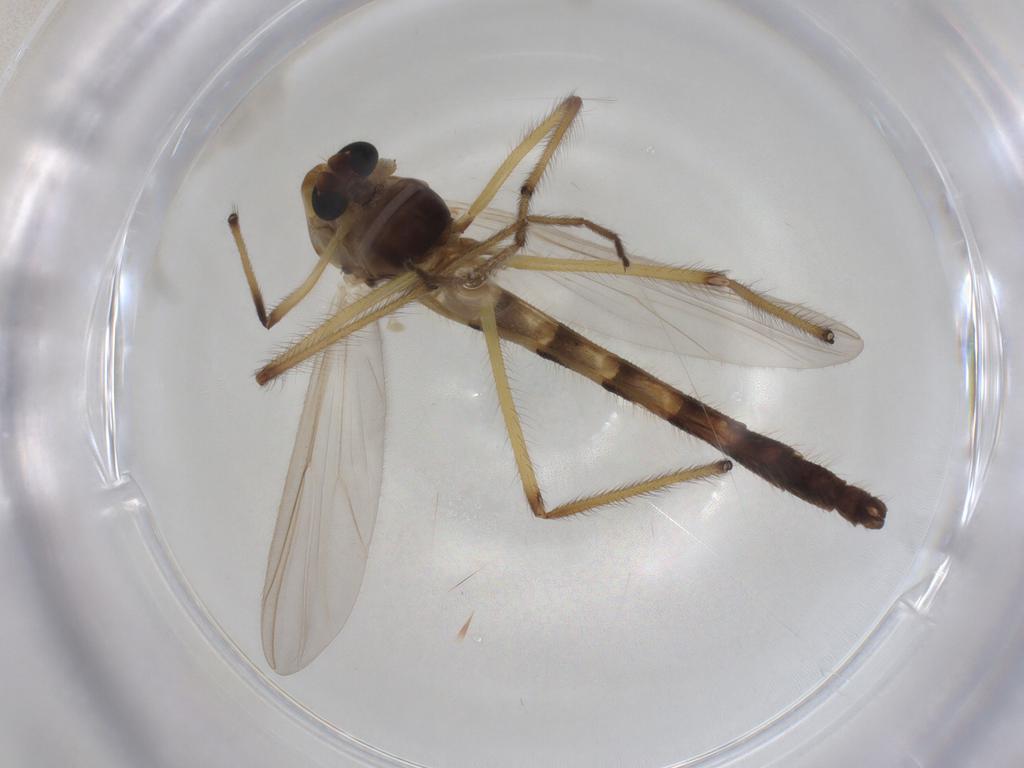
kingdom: Animalia
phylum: Arthropoda
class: Insecta
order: Diptera
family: Chironomidae
